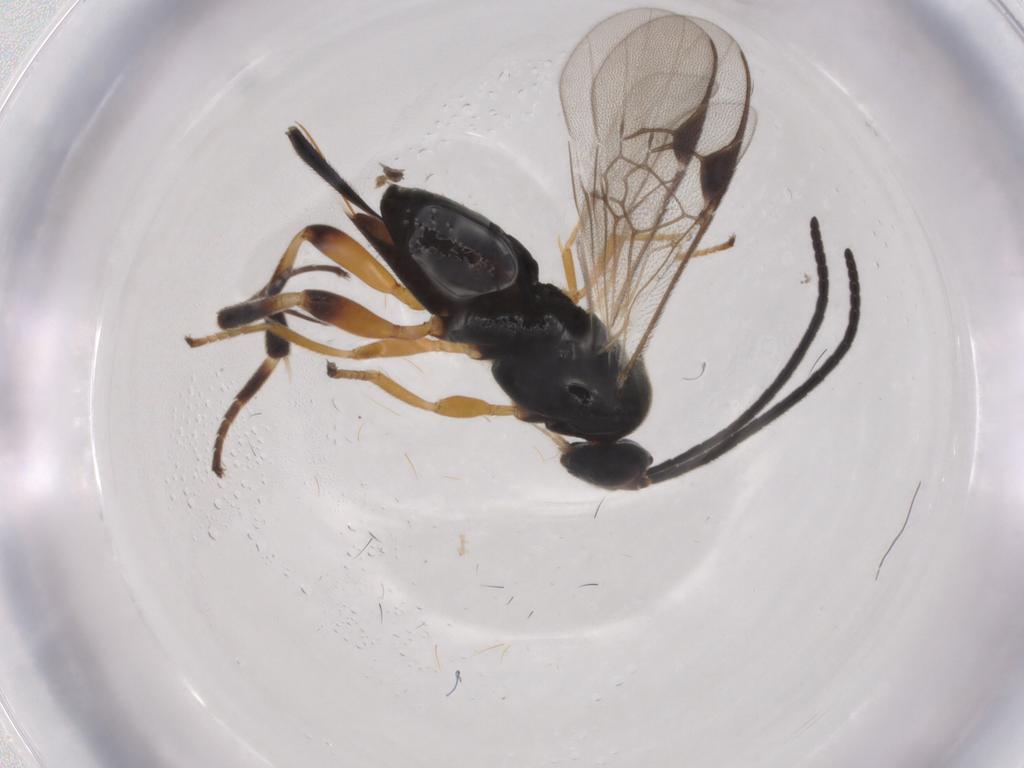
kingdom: Animalia
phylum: Arthropoda
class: Insecta
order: Hymenoptera
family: Braconidae
